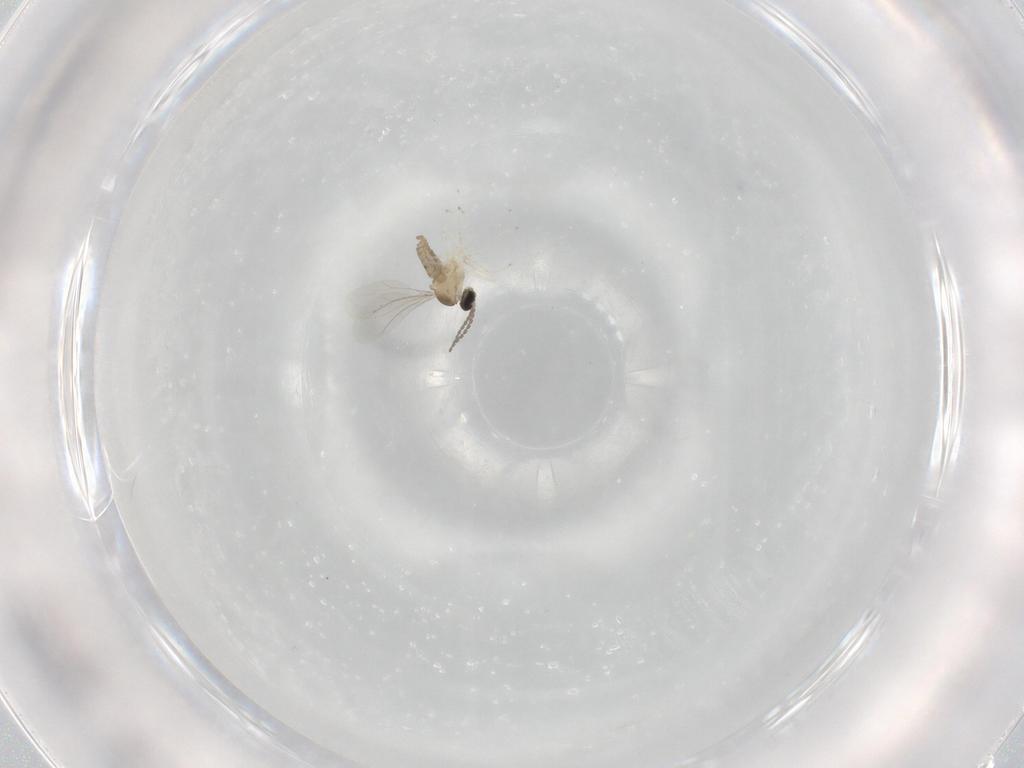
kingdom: Animalia
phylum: Arthropoda
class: Insecta
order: Diptera
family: Cecidomyiidae
